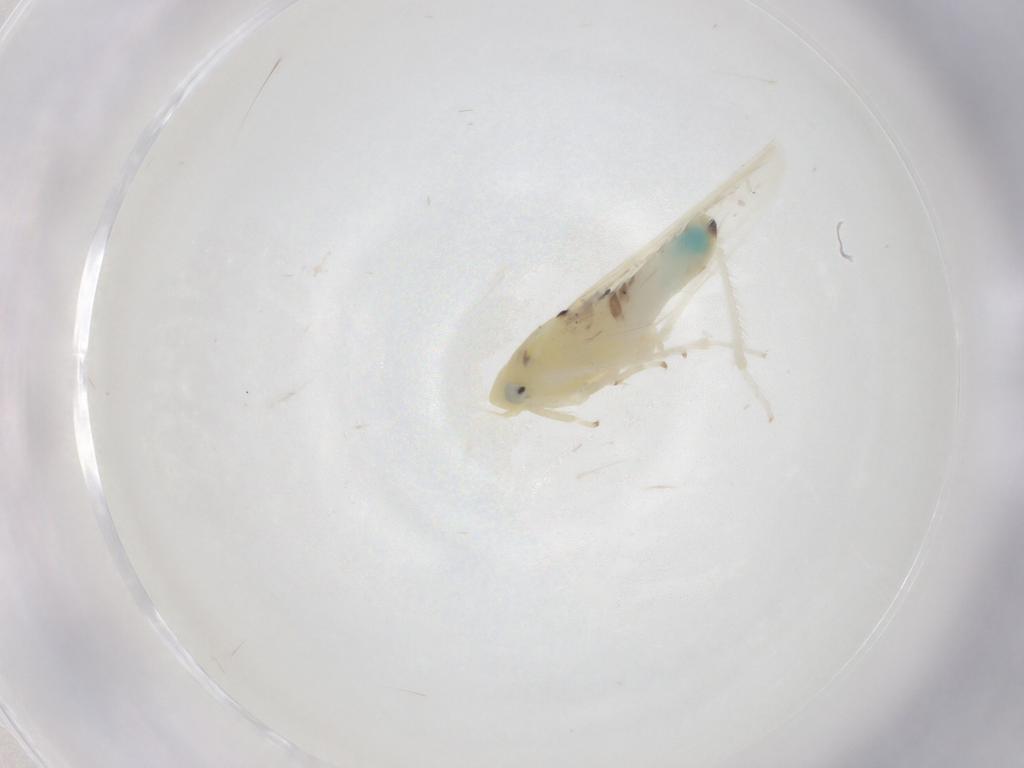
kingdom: Animalia
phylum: Arthropoda
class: Insecta
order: Hemiptera
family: Cicadellidae
